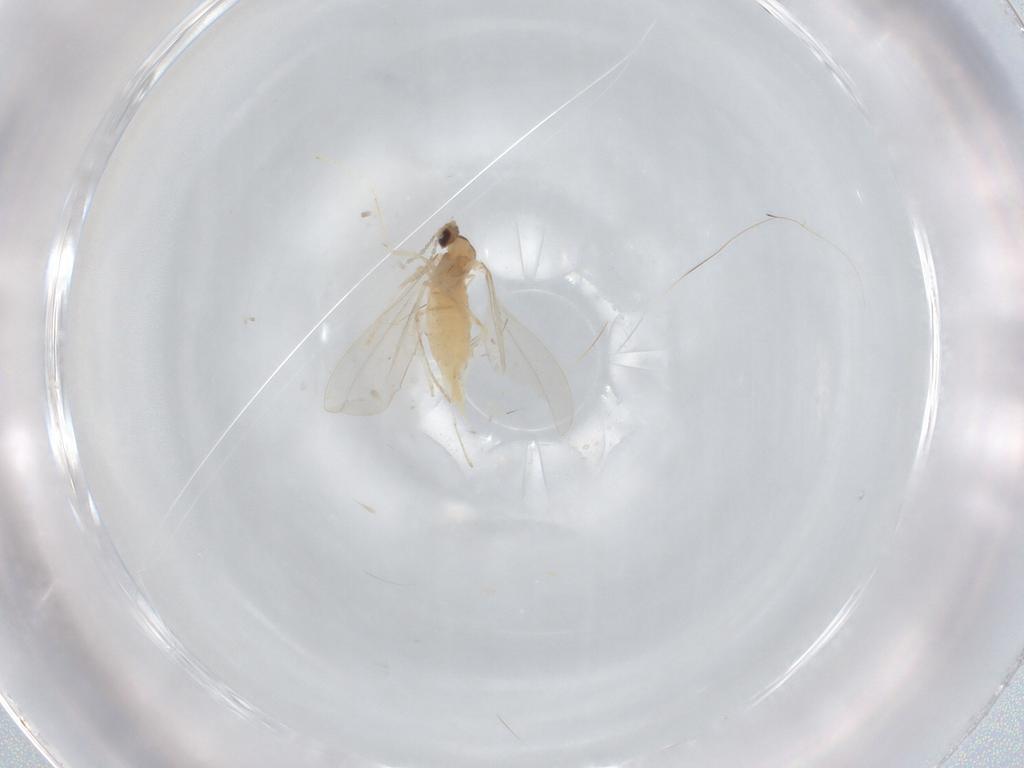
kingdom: Animalia
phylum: Arthropoda
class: Insecta
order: Diptera
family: Cecidomyiidae
